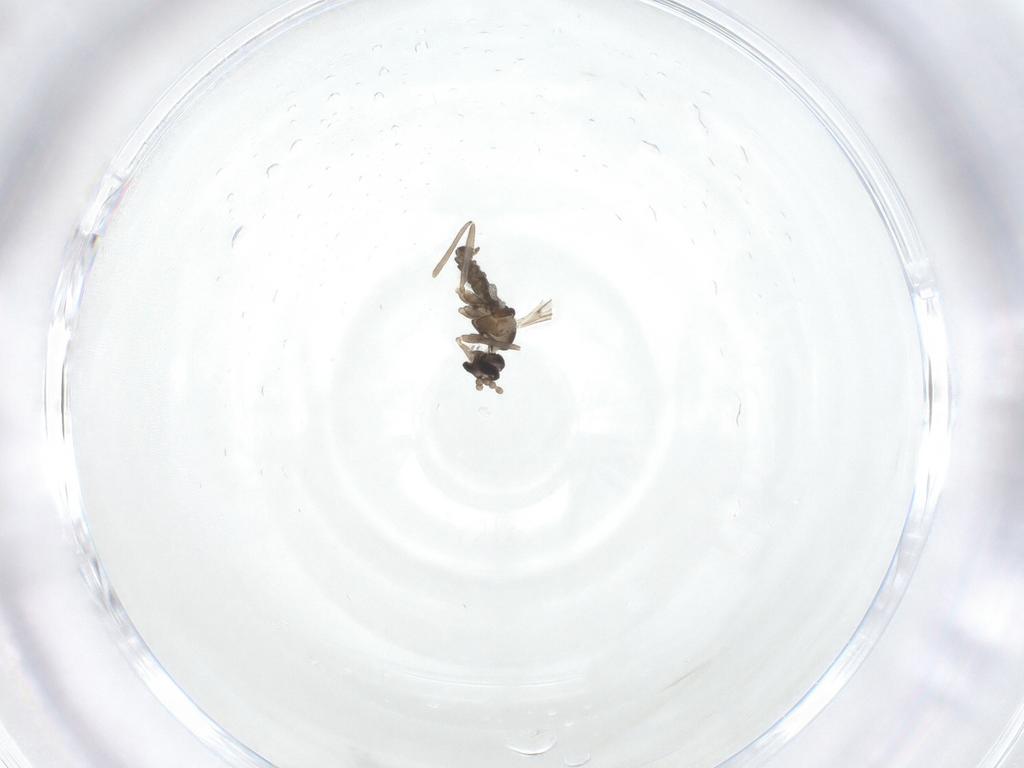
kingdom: Animalia
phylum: Arthropoda
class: Insecta
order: Diptera
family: Cecidomyiidae
